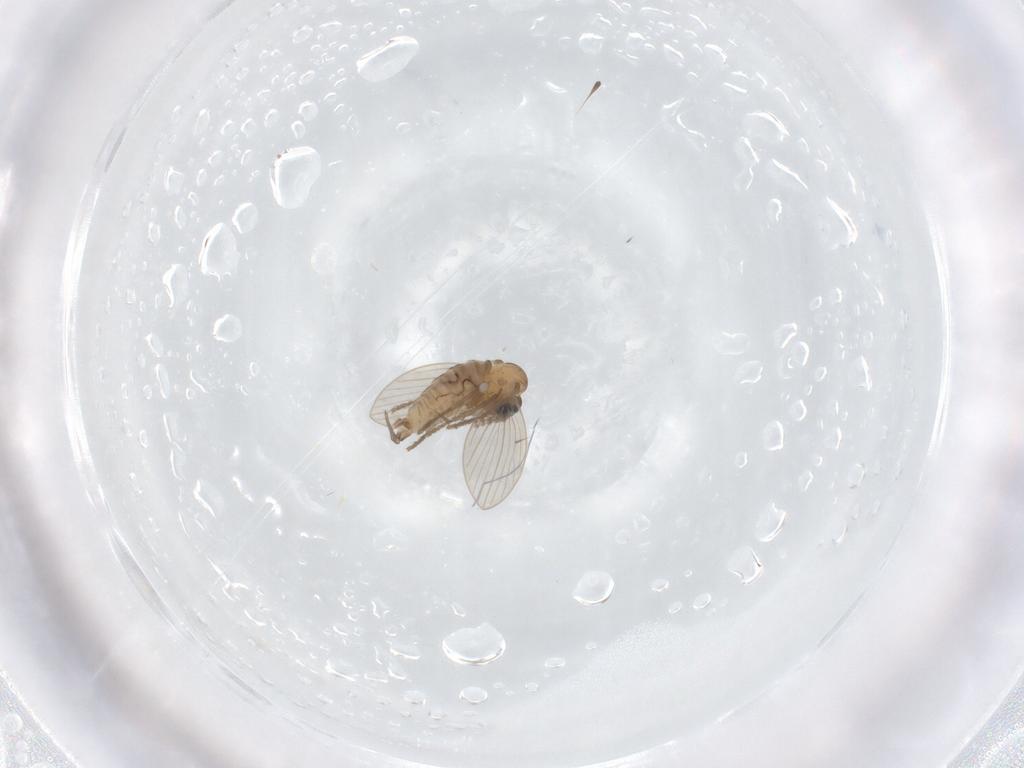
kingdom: Animalia
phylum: Arthropoda
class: Insecta
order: Diptera
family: Psychodidae
